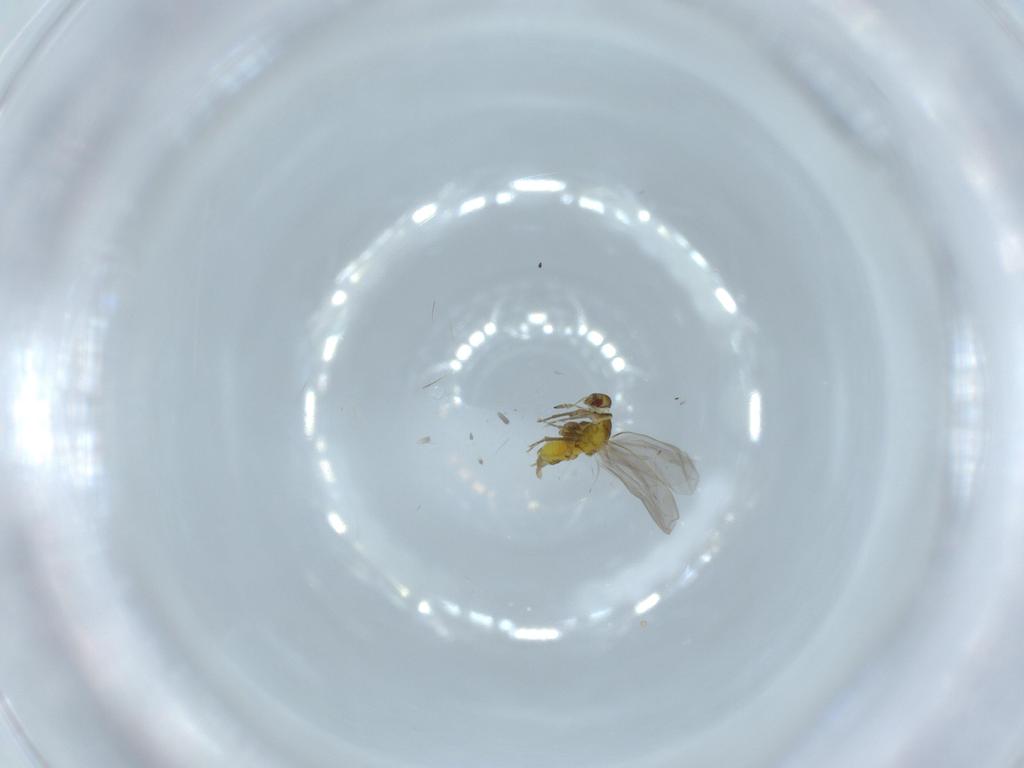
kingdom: Animalia
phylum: Arthropoda
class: Insecta
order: Hemiptera
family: Aleyrodidae
